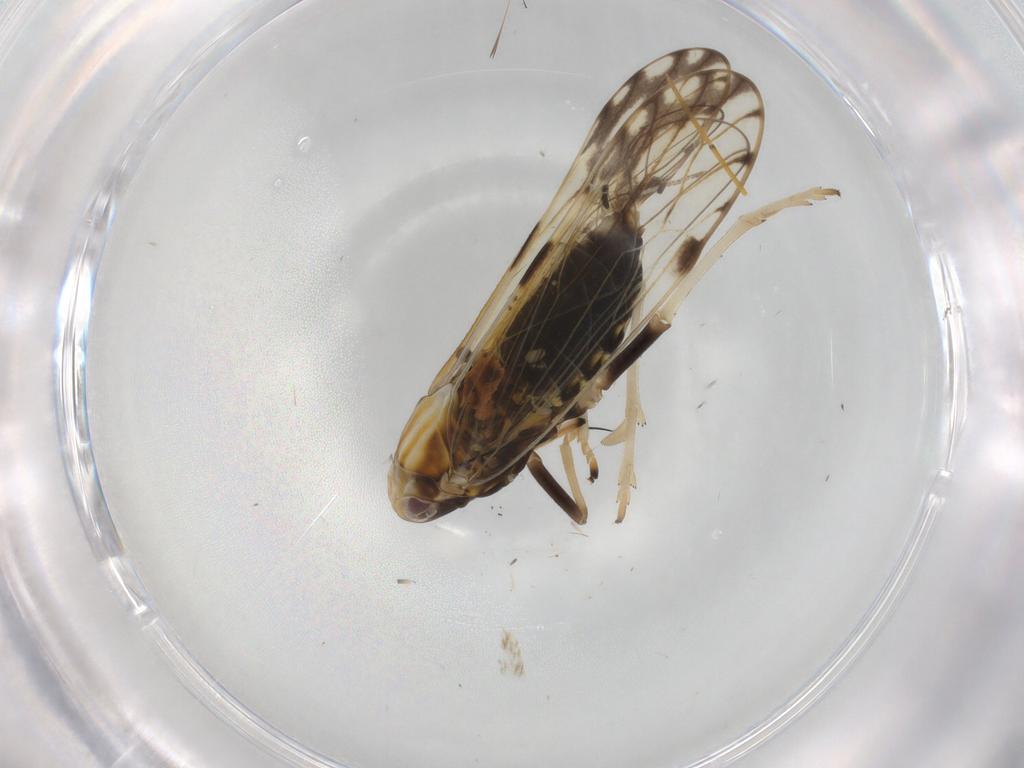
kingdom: Animalia
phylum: Arthropoda
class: Insecta
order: Hemiptera
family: Delphacidae
